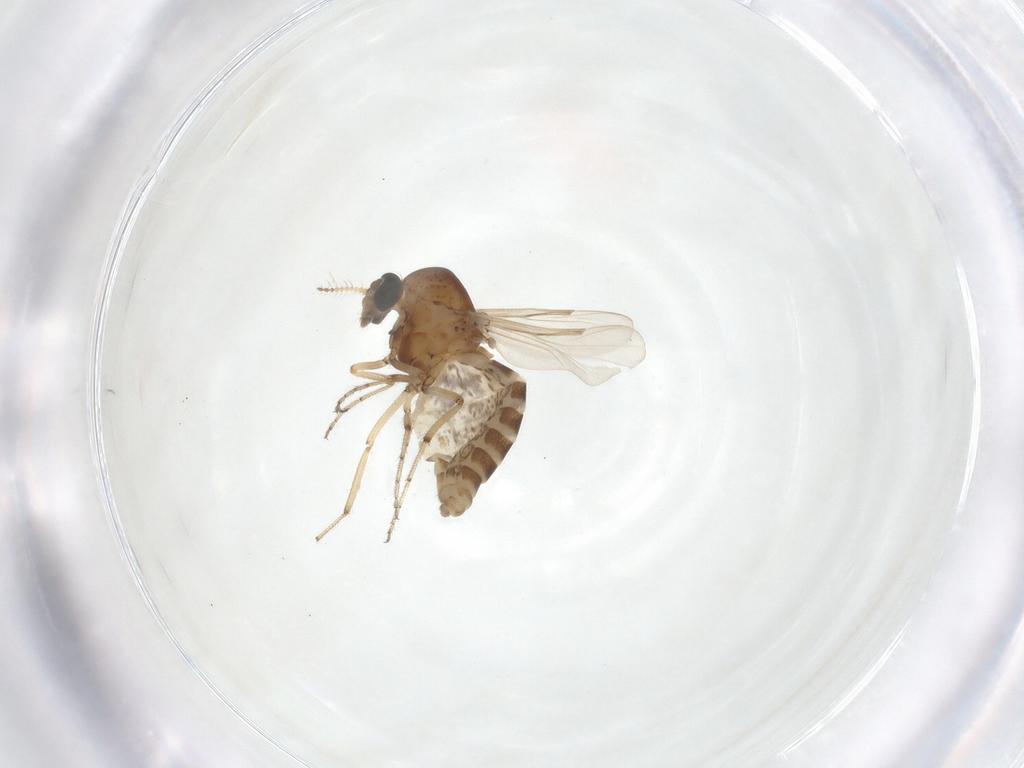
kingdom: Animalia
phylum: Arthropoda
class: Insecta
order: Diptera
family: Ceratopogonidae
